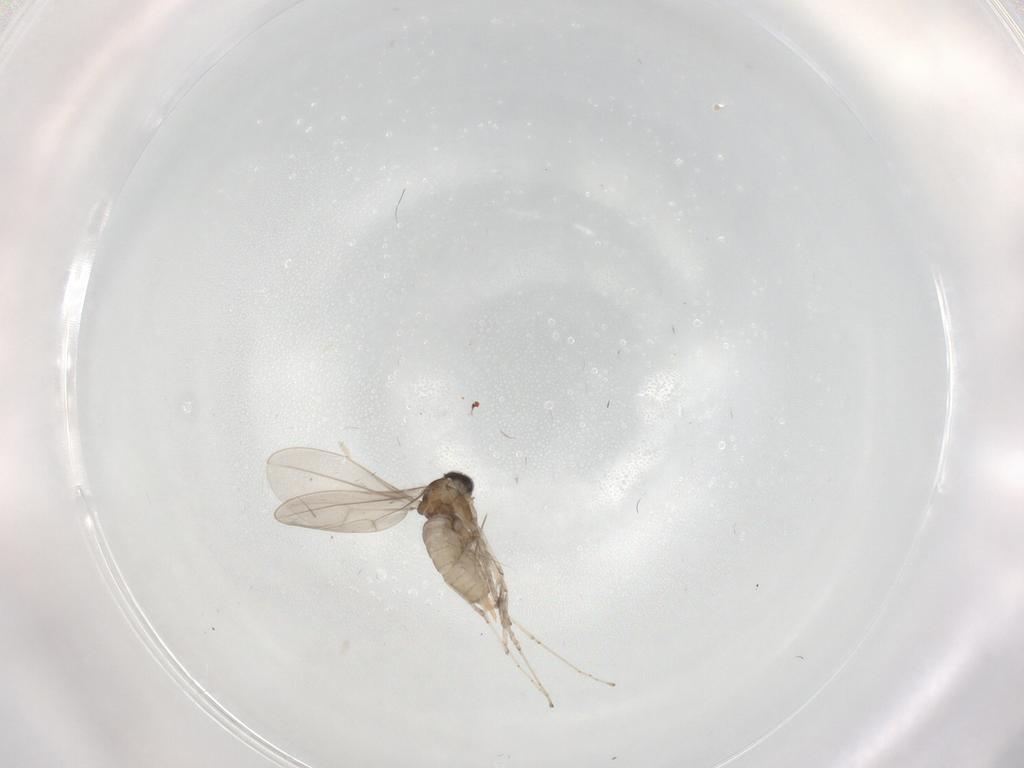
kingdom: Animalia
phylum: Arthropoda
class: Insecta
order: Diptera
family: Cecidomyiidae
